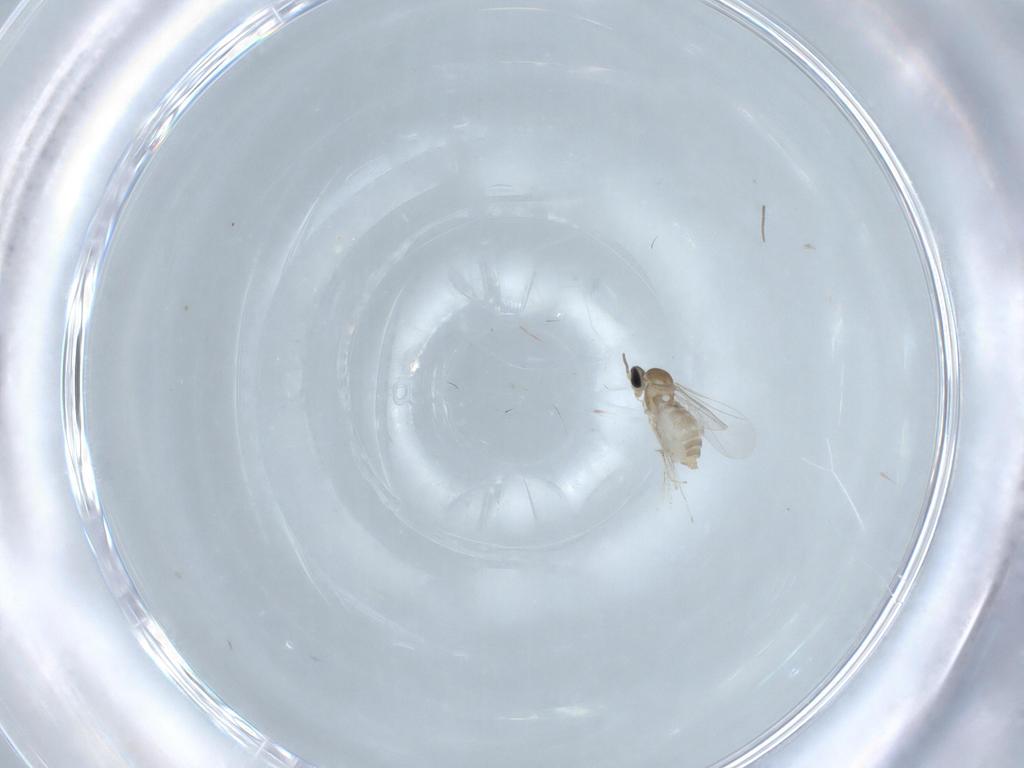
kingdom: Animalia
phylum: Arthropoda
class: Insecta
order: Diptera
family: Cecidomyiidae
